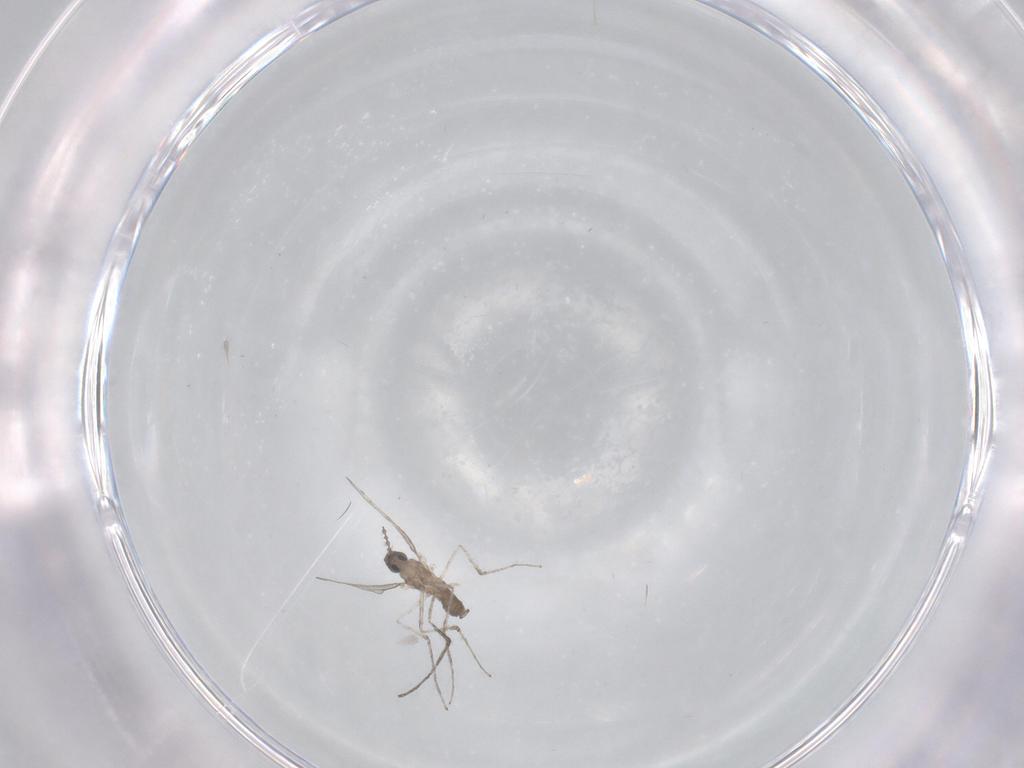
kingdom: Animalia
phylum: Arthropoda
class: Insecta
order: Diptera
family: Cecidomyiidae
